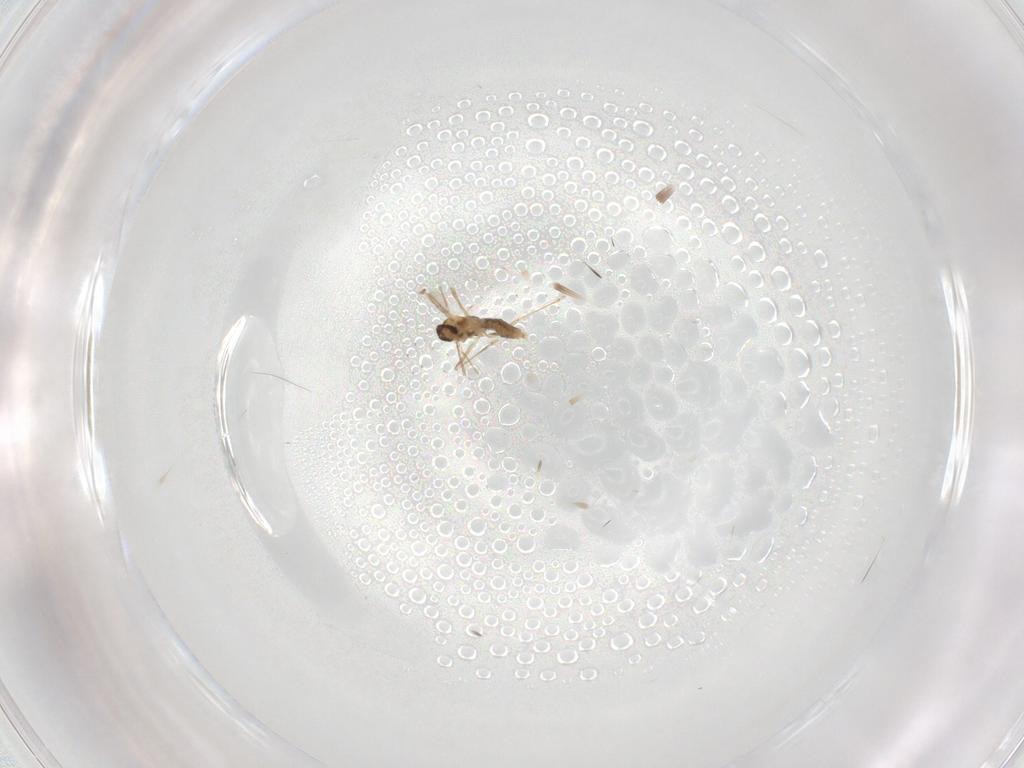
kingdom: Animalia
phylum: Arthropoda
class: Insecta
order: Diptera
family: Cecidomyiidae
